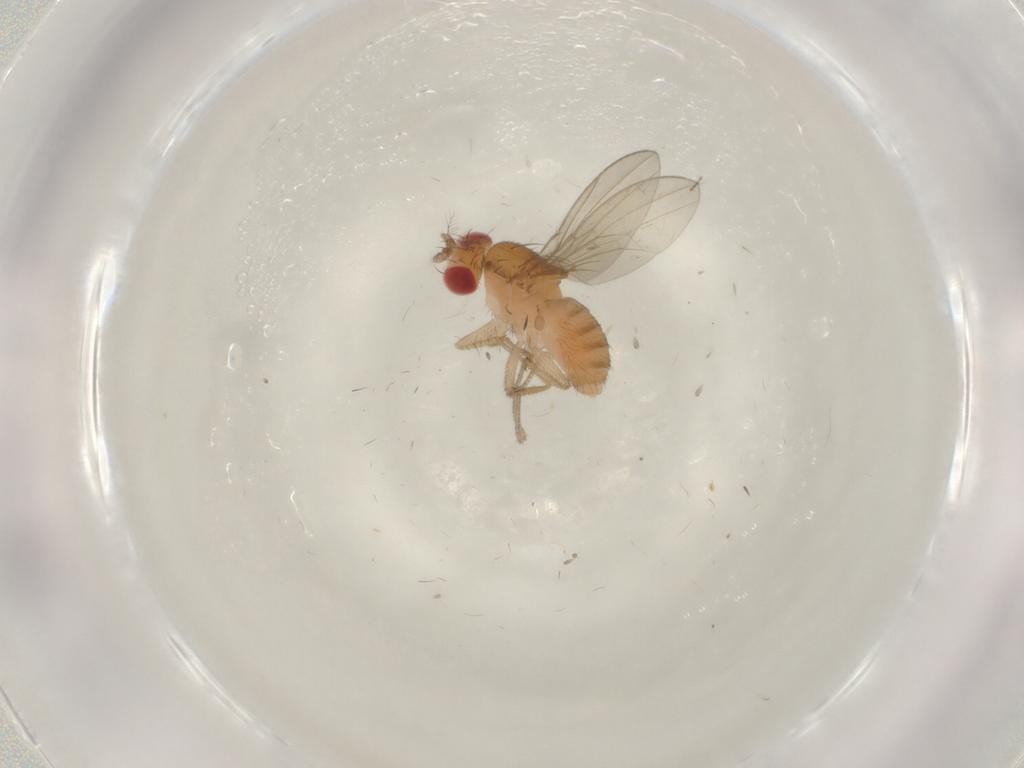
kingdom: Animalia
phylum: Arthropoda
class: Insecta
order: Diptera
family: Drosophilidae
